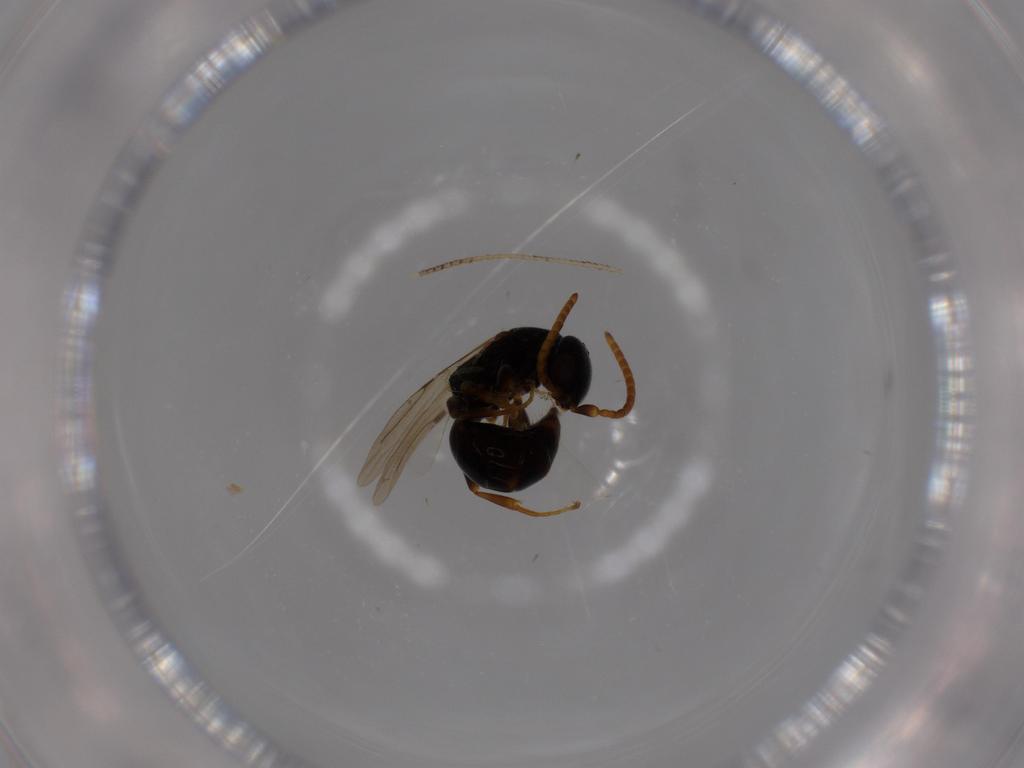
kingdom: Animalia
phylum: Arthropoda
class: Insecta
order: Hymenoptera
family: Bethylidae
